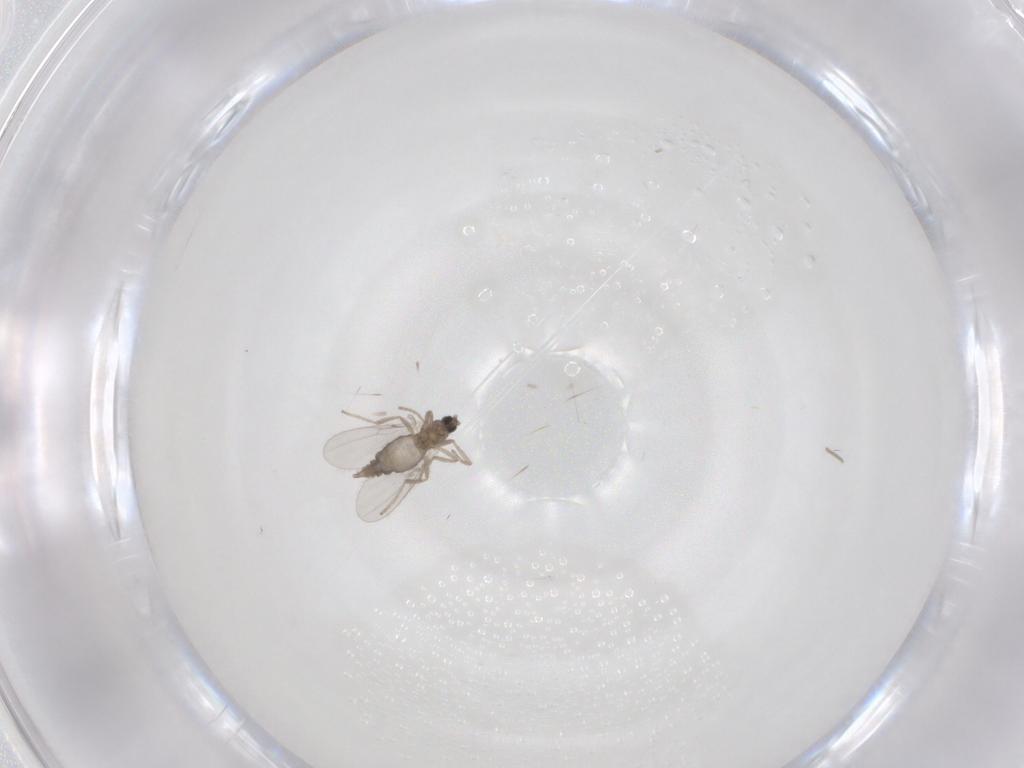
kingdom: Animalia
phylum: Arthropoda
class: Insecta
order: Diptera
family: Cecidomyiidae
